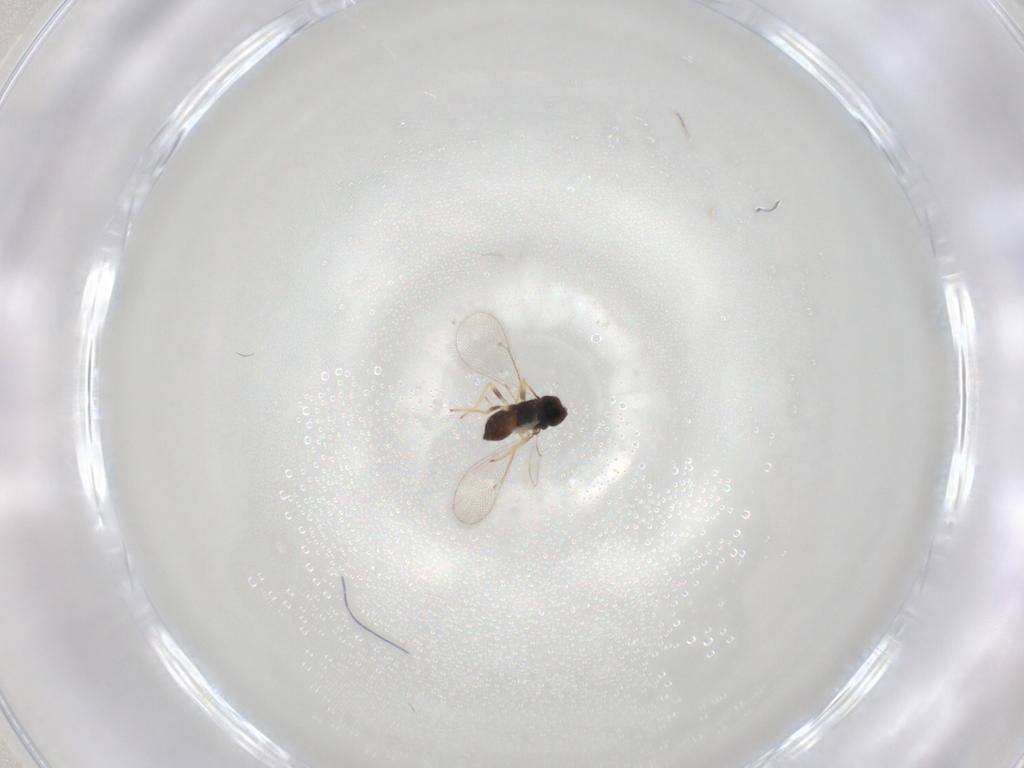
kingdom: Animalia
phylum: Arthropoda
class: Insecta
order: Hymenoptera
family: Eulophidae
